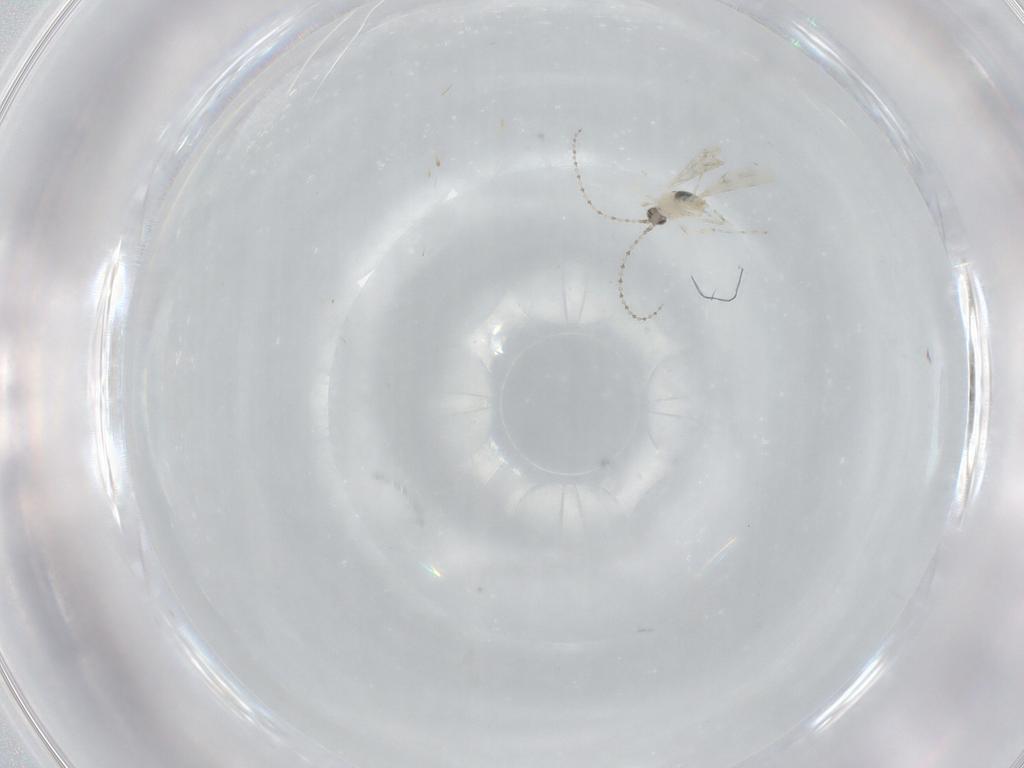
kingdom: Animalia
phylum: Arthropoda
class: Insecta
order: Diptera
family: Cecidomyiidae
